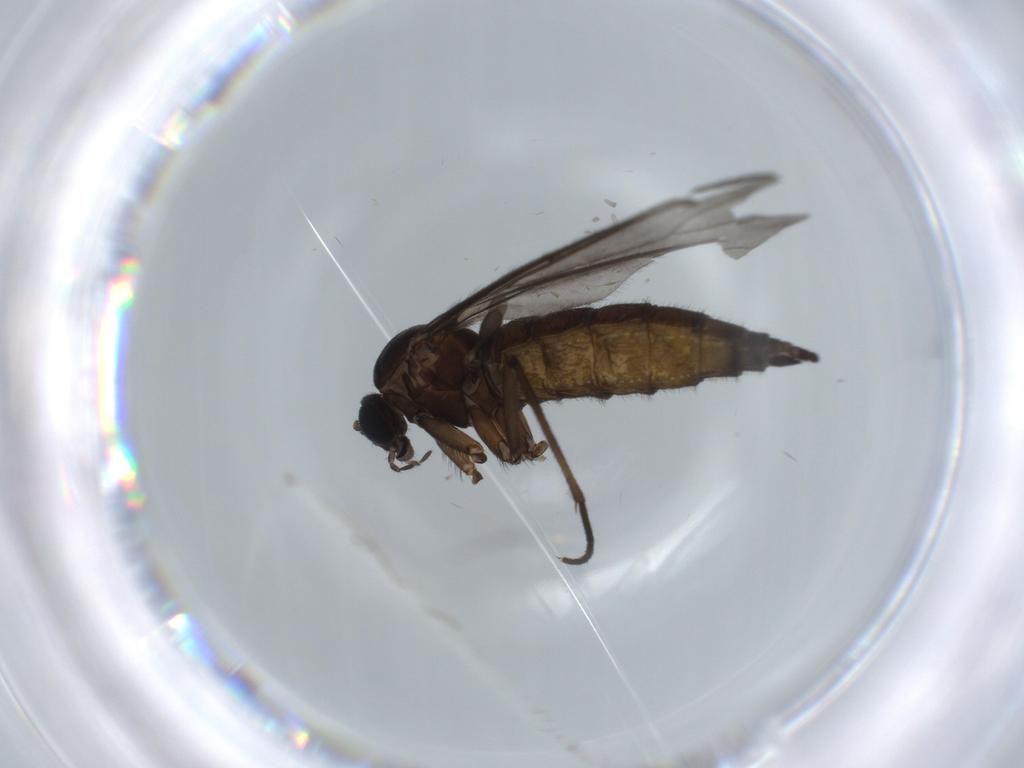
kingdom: Animalia
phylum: Arthropoda
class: Insecta
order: Diptera
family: Sciaridae
